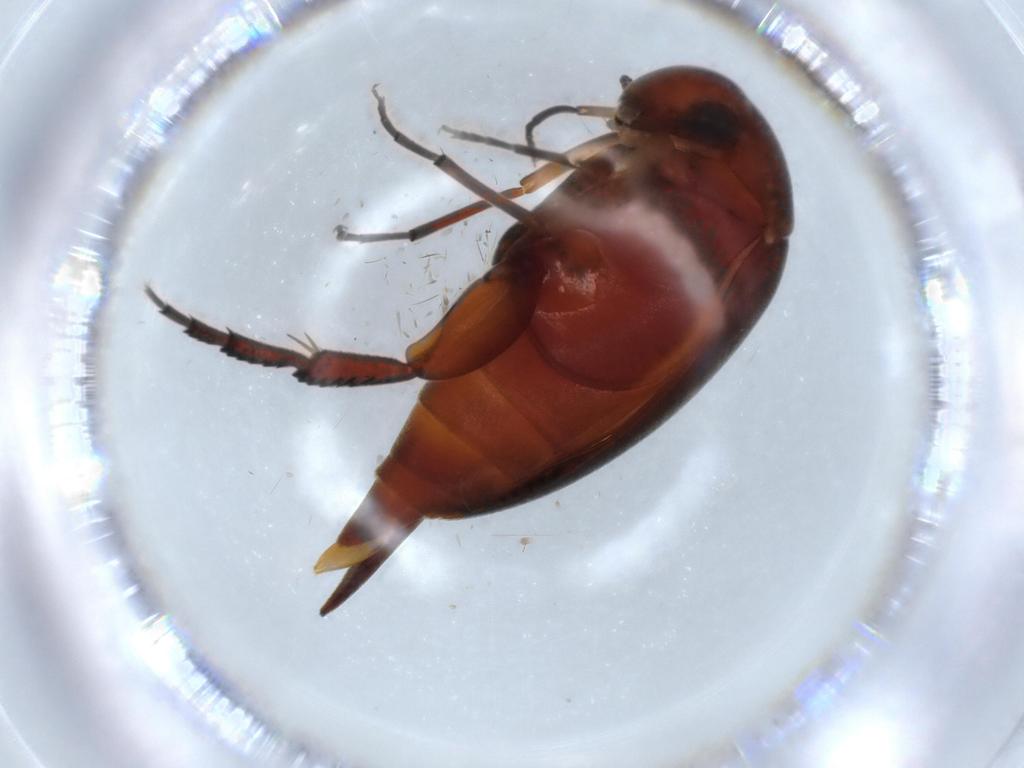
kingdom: Animalia
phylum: Arthropoda
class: Insecta
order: Coleoptera
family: Mordellidae
